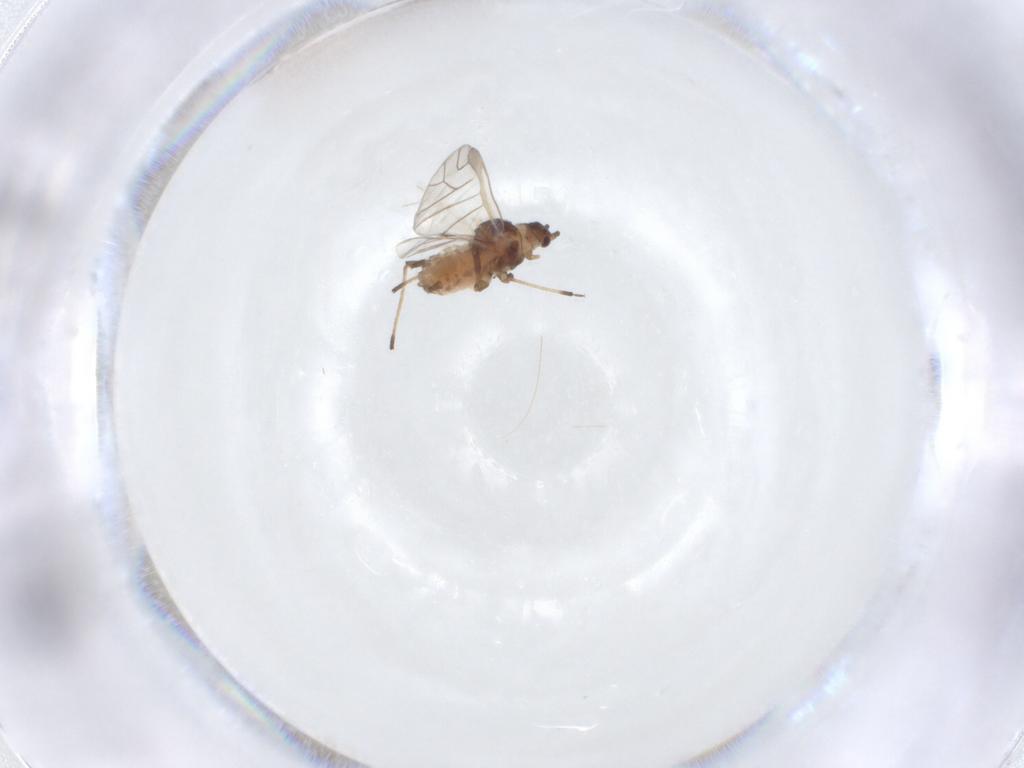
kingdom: Animalia
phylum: Arthropoda
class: Insecta
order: Hemiptera
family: Aphididae
